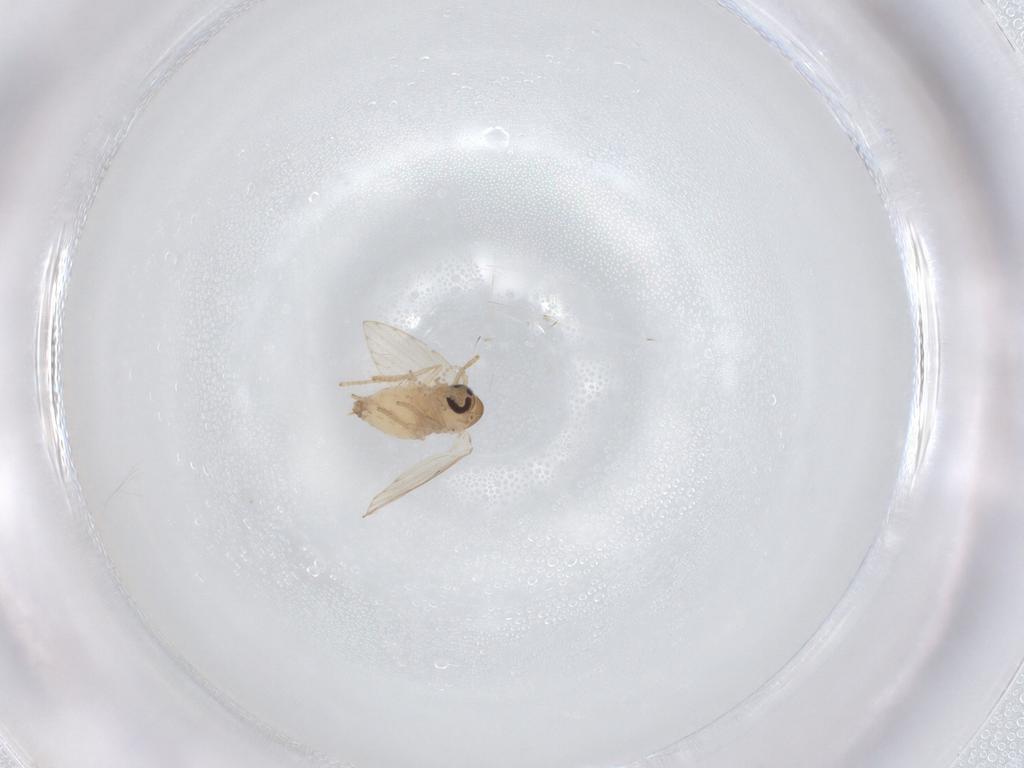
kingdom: Animalia
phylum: Arthropoda
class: Insecta
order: Diptera
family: Psychodidae
